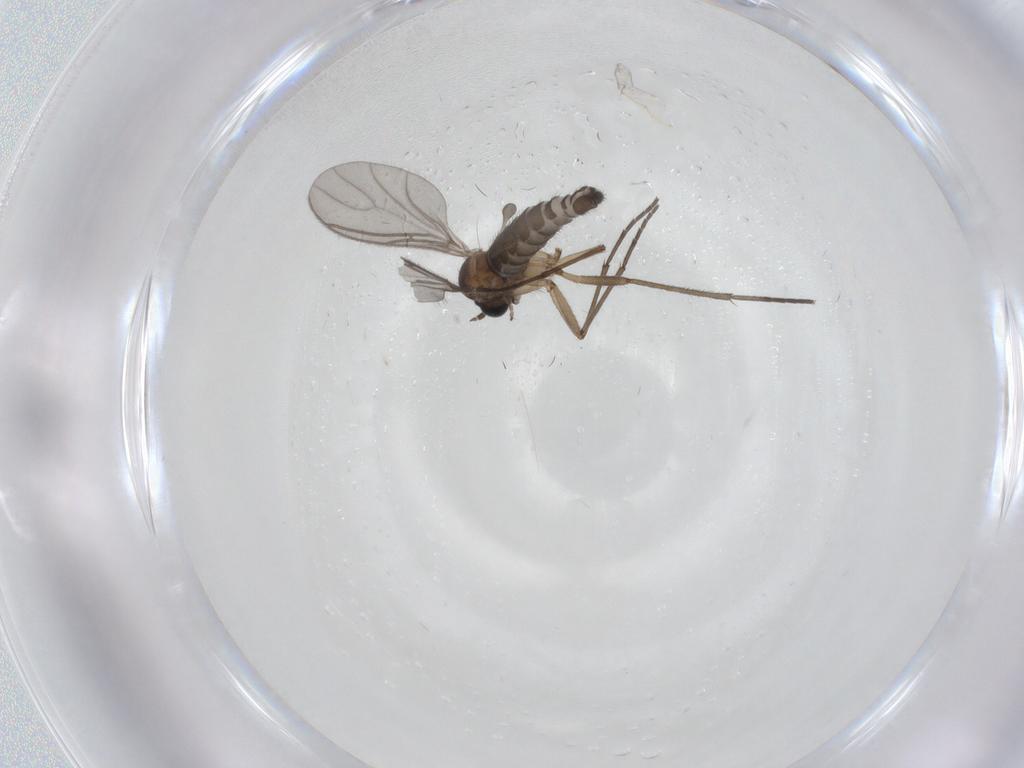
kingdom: Animalia
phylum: Arthropoda
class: Insecta
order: Diptera
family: Sciaridae
